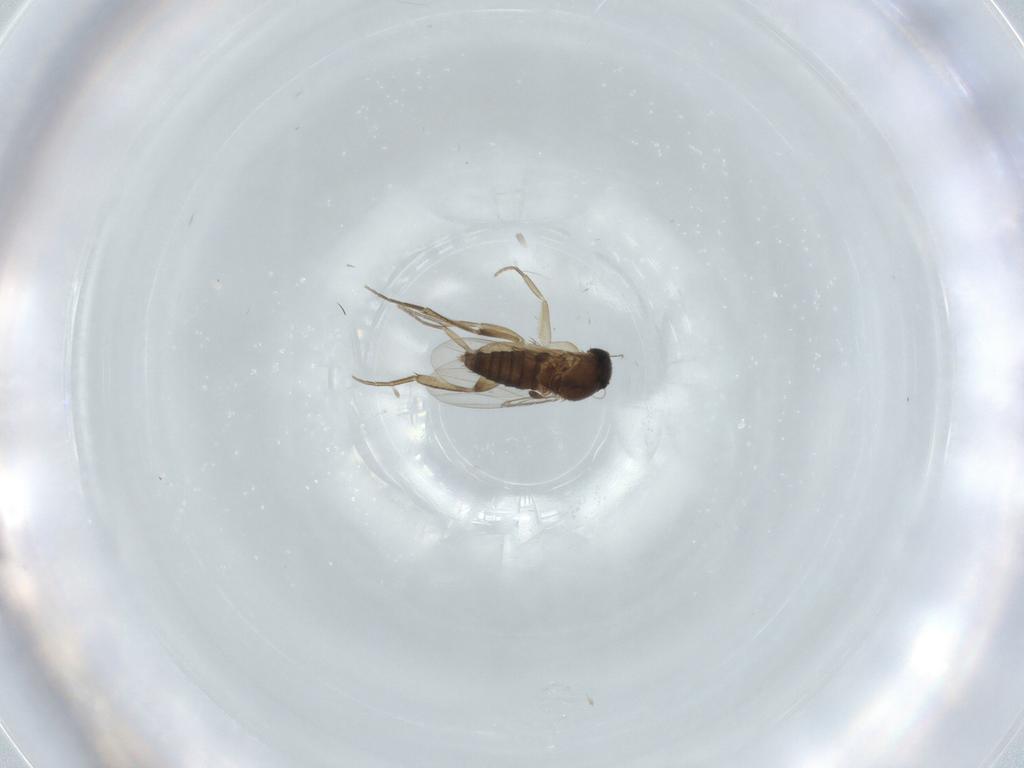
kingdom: Animalia
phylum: Arthropoda
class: Insecta
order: Diptera
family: Phoridae
